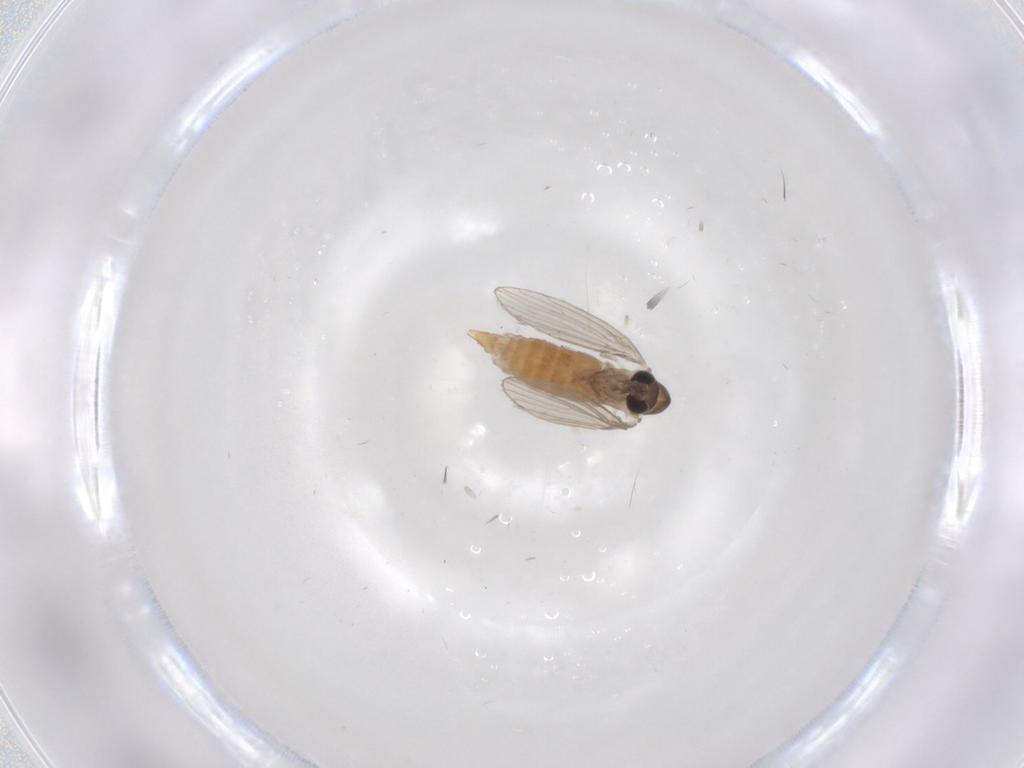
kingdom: Animalia
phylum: Arthropoda
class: Insecta
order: Diptera
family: Psychodidae
